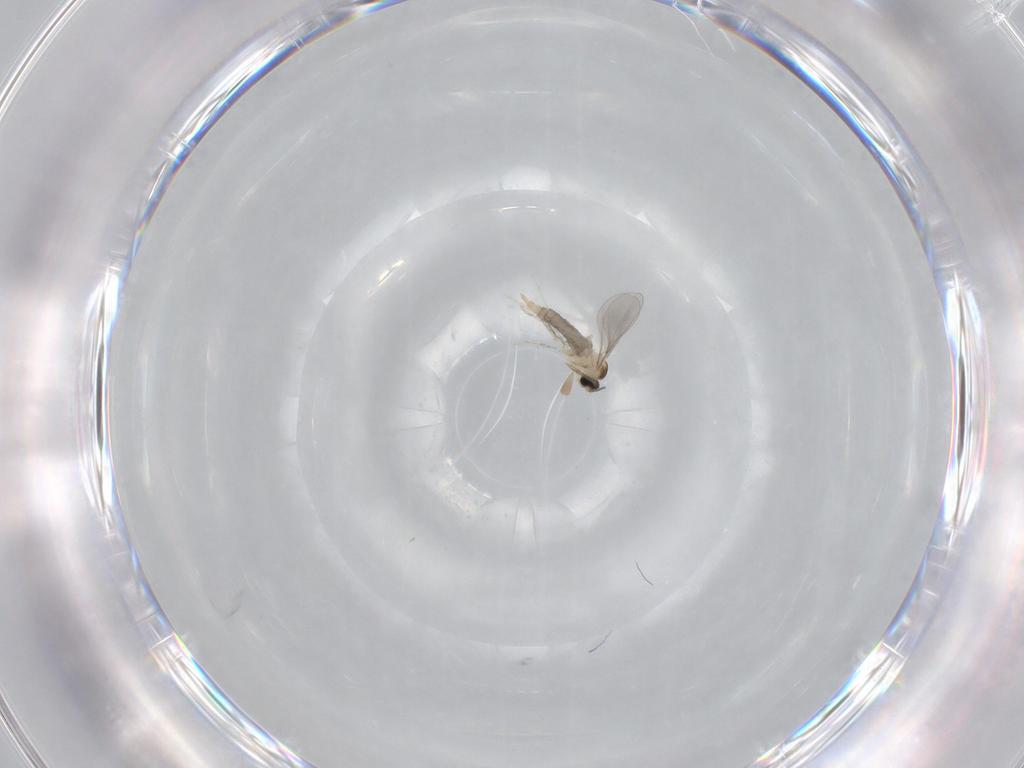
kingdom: Animalia
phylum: Arthropoda
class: Insecta
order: Diptera
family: Cecidomyiidae
